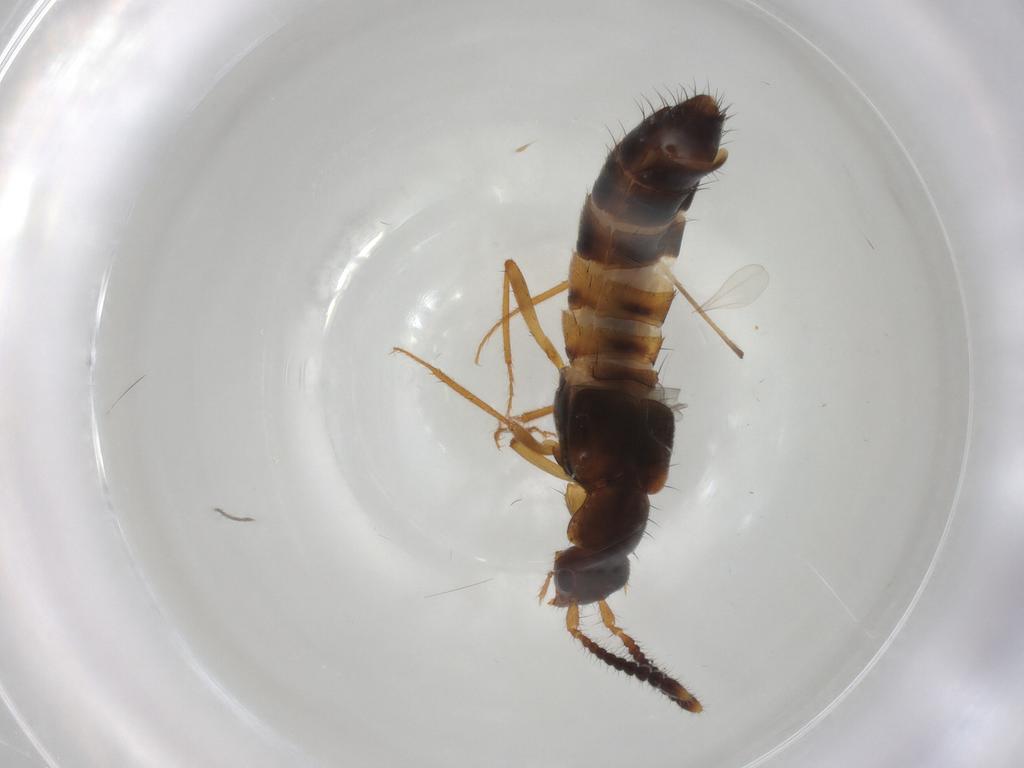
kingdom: Animalia
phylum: Arthropoda
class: Insecta
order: Coleoptera
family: Staphylinidae
